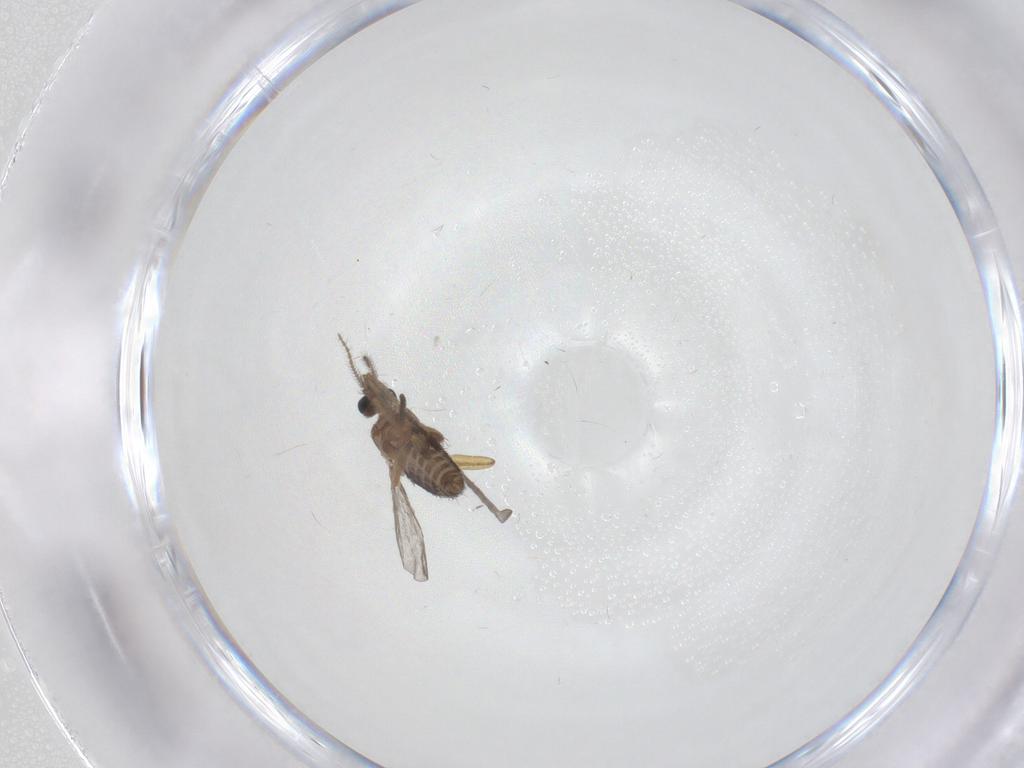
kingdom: Animalia
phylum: Arthropoda
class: Insecta
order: Diptera
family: Ceratopogonidae
